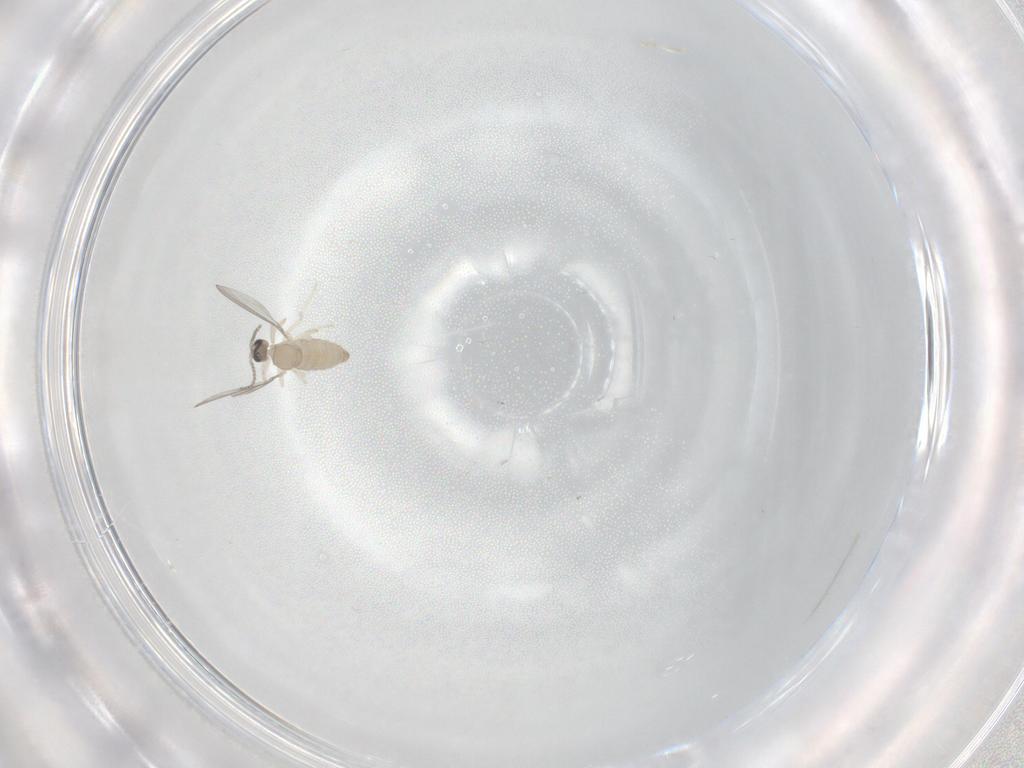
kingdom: Animalia
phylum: Arthropoda
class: Insecta
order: Diptera
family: Cecidomyiidae
